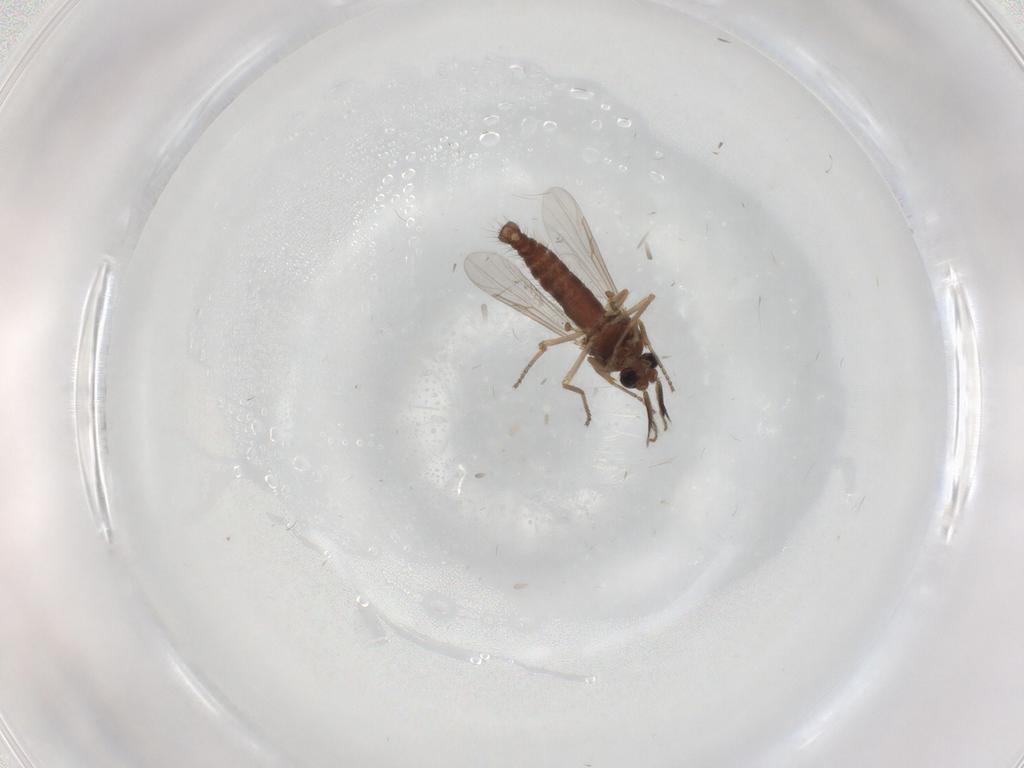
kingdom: Animalia
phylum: Arthropoda
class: Insecta
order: Diptera
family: Ceratopogonidae
